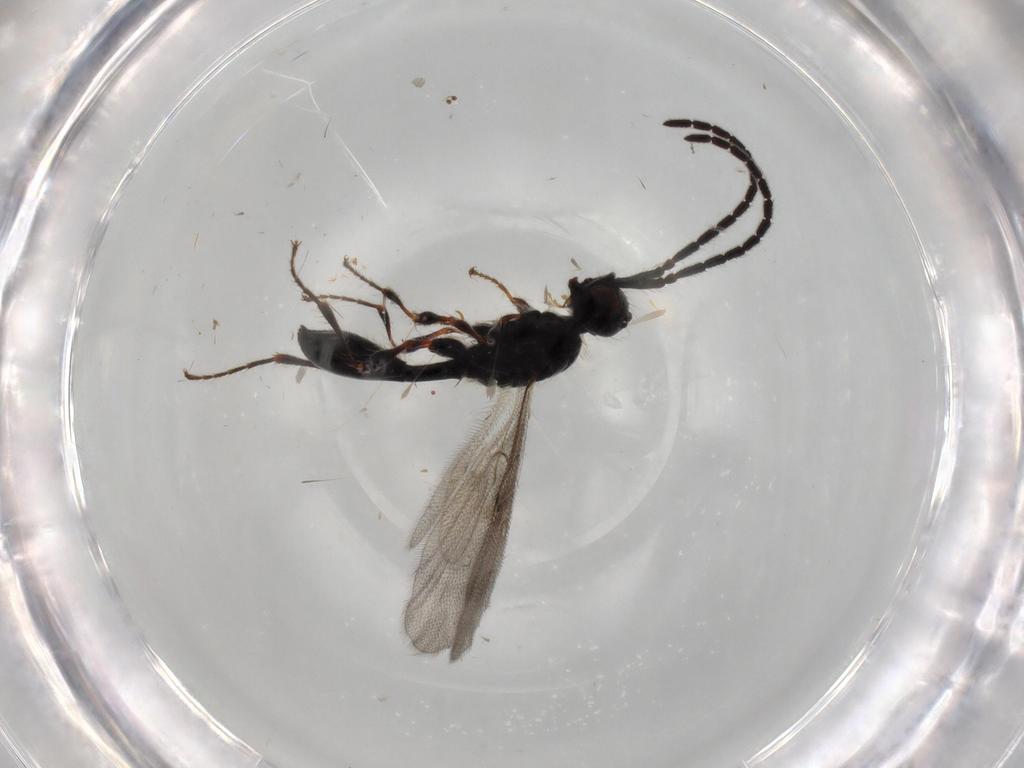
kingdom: Animalia
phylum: Arthropoda
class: Insecta
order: Hymenoptera
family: Diapriidae
